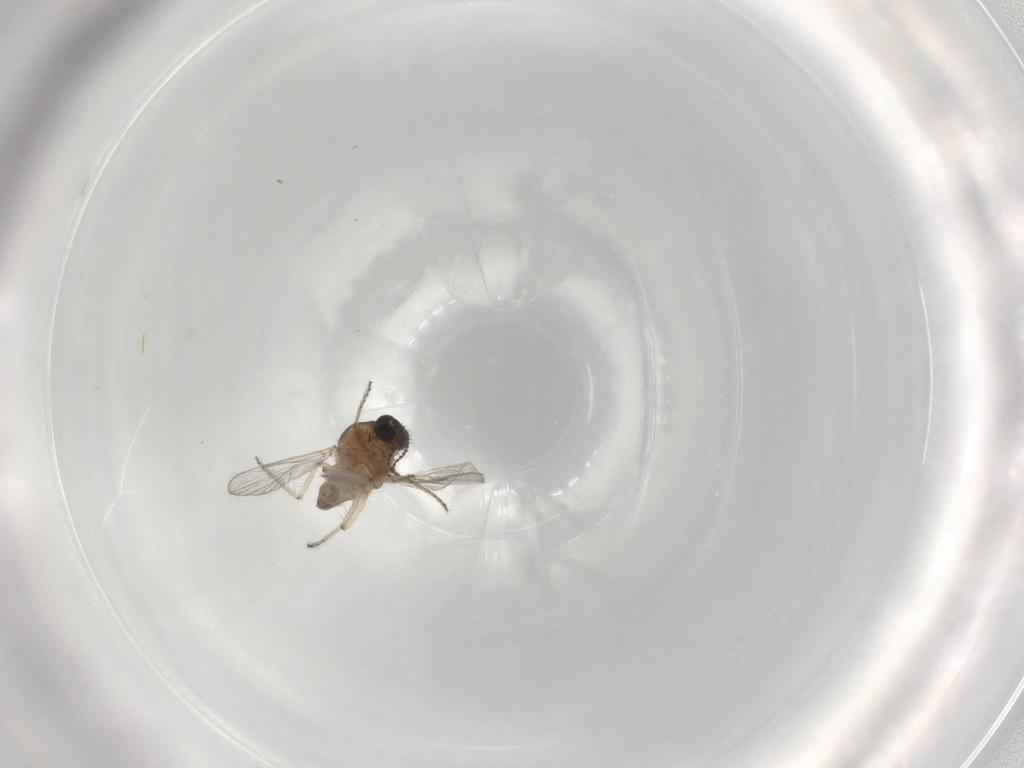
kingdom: Animalia
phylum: Arthropoda
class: Insecta
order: Diptera
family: Ceratopogonidae
